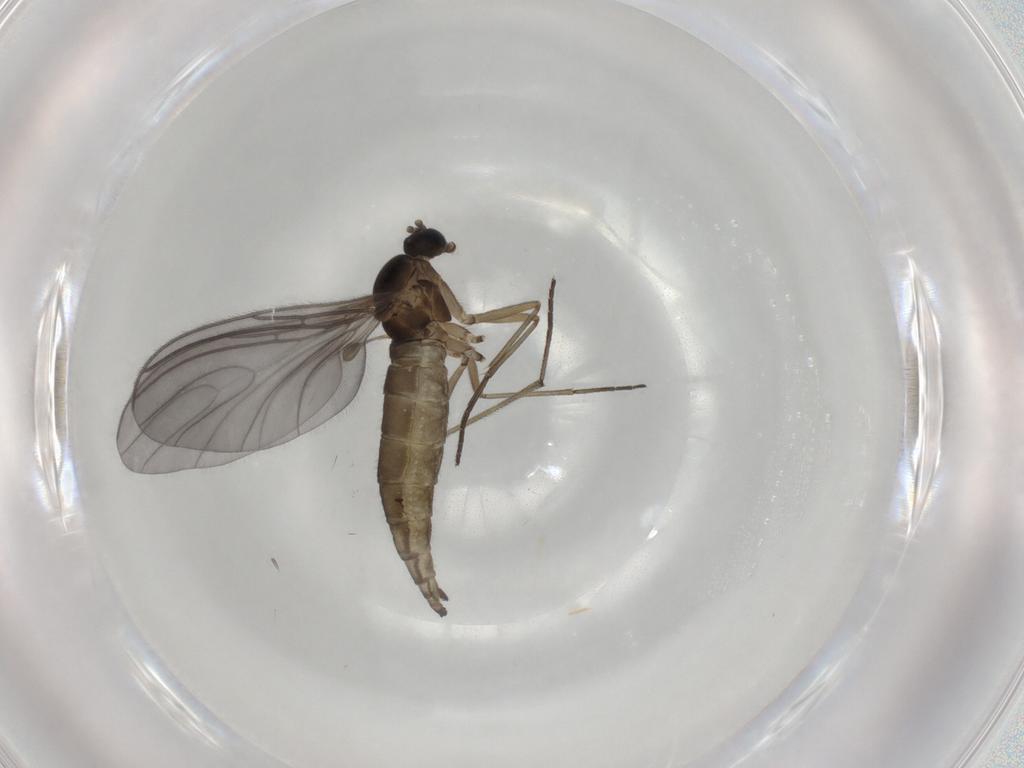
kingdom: Animalia
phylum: Arthropoda
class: Insecta
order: Diptera
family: Sciaridae
